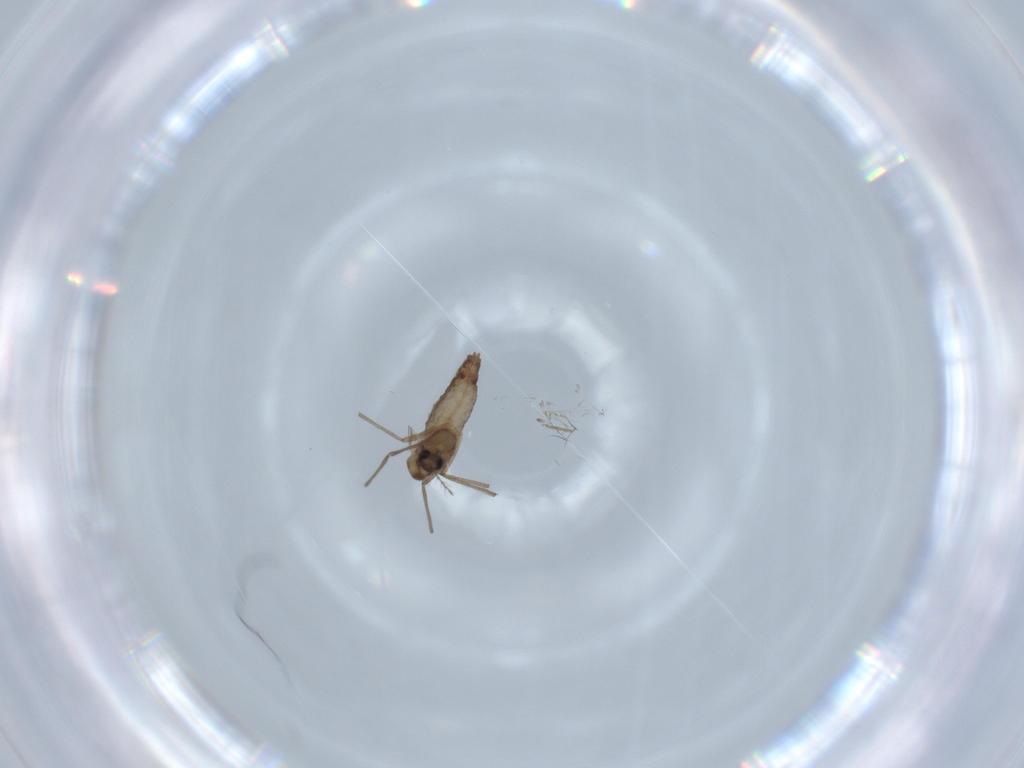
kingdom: Animalia
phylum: Arthropoda
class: Insecta
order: Diptera
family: Chironomidae
